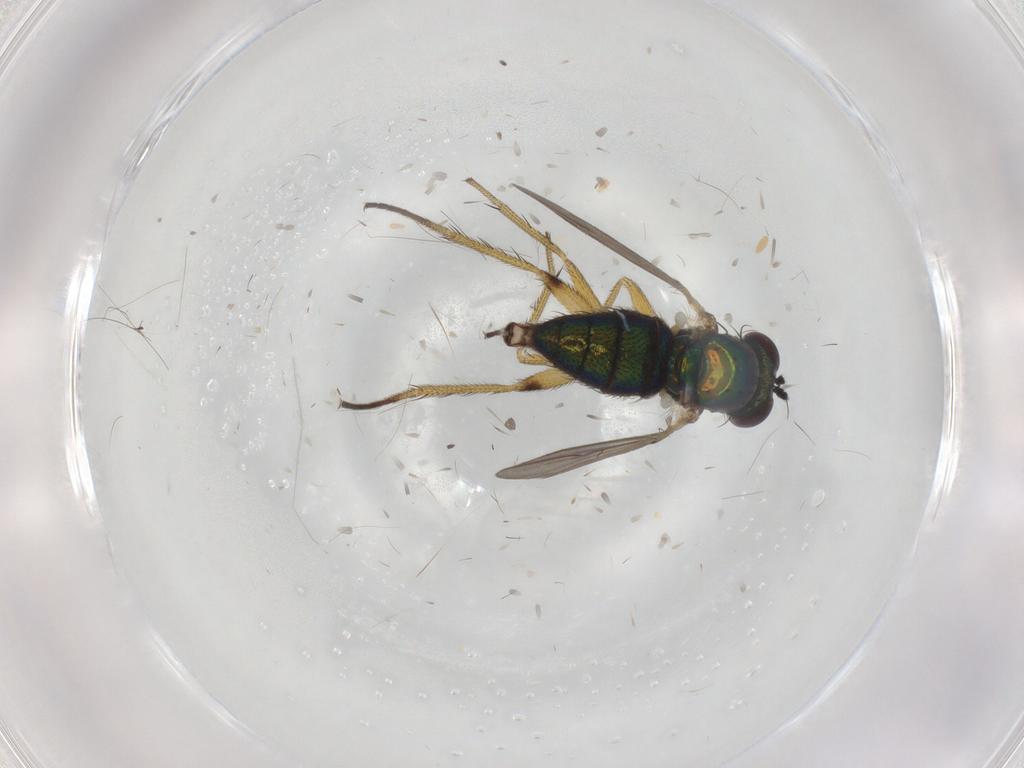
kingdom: Animalia
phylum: Arthropoda
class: Insecta
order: Diptera
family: Dolichopodidae
